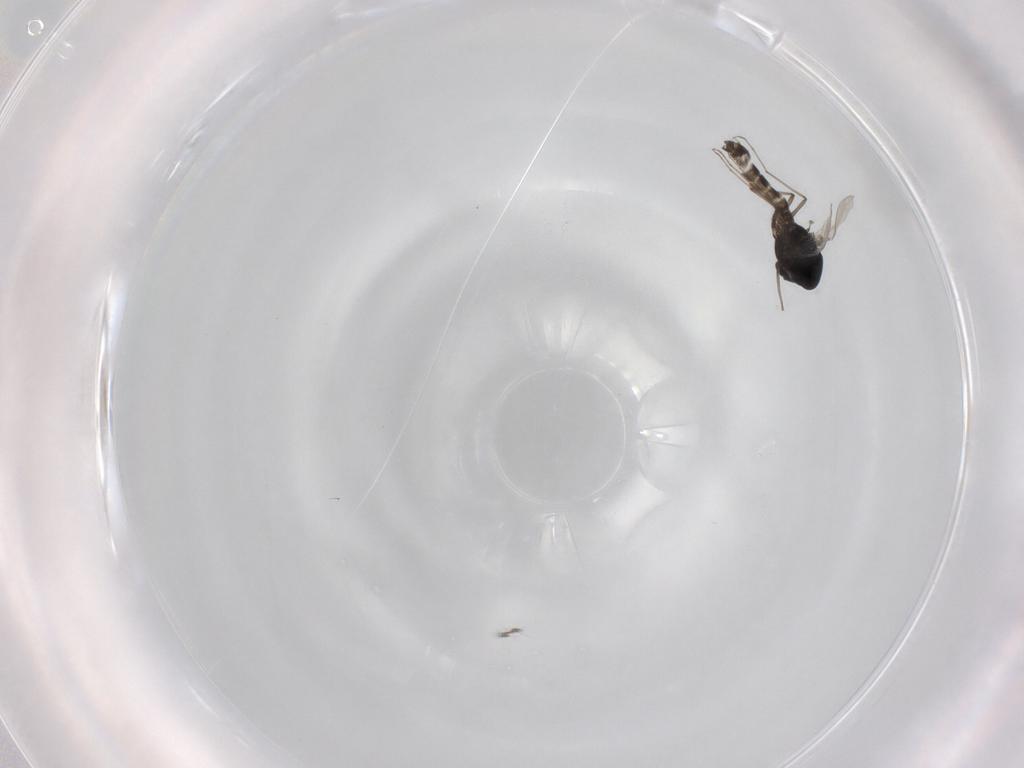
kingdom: Animalia
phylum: Arthropoda
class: Insecta
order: Diptera
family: Chironomidae
